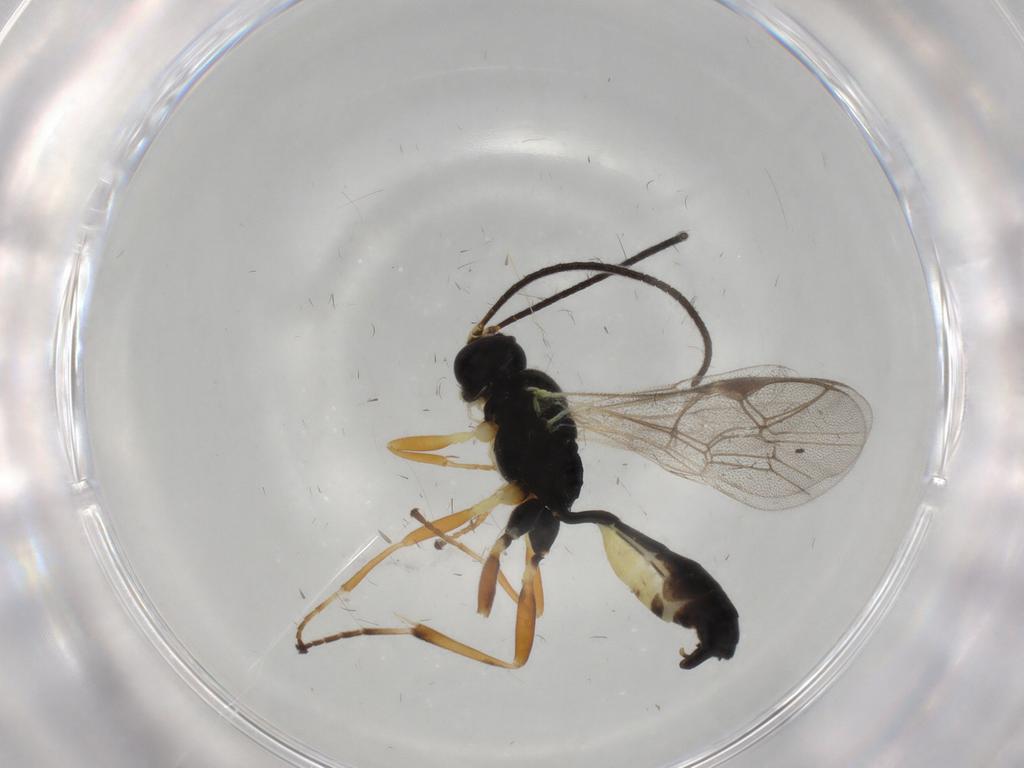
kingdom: Animalia
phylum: Arthropoda
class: Insecta
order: Hymenoptera
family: Ichneumonidae
